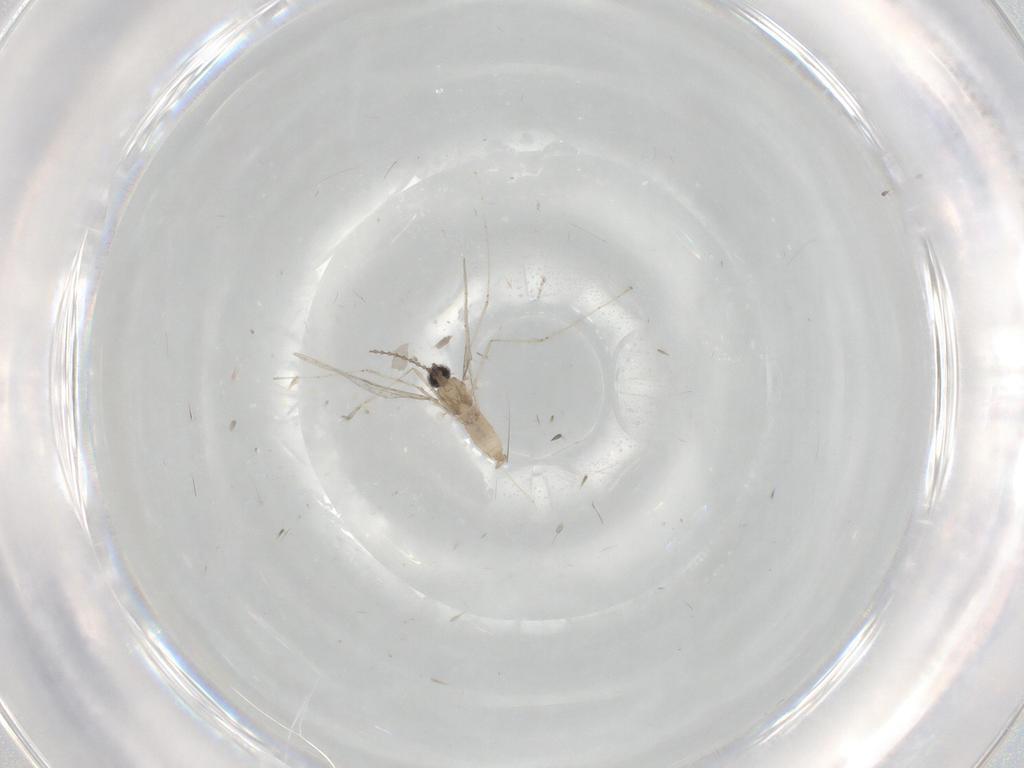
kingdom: Animalia
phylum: Arthropoda
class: Insecta
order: Diptera
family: Cecidomyiidae
